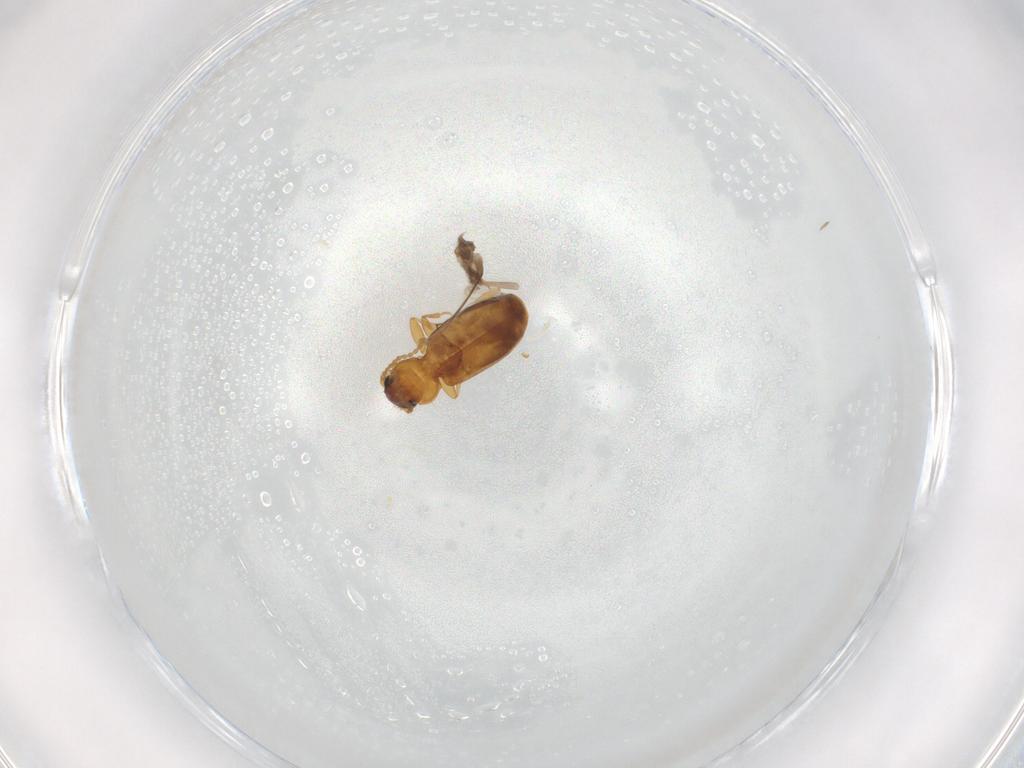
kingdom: Animalia
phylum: Arthropoda
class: Insecta
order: Coleoptera
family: Carabidae
